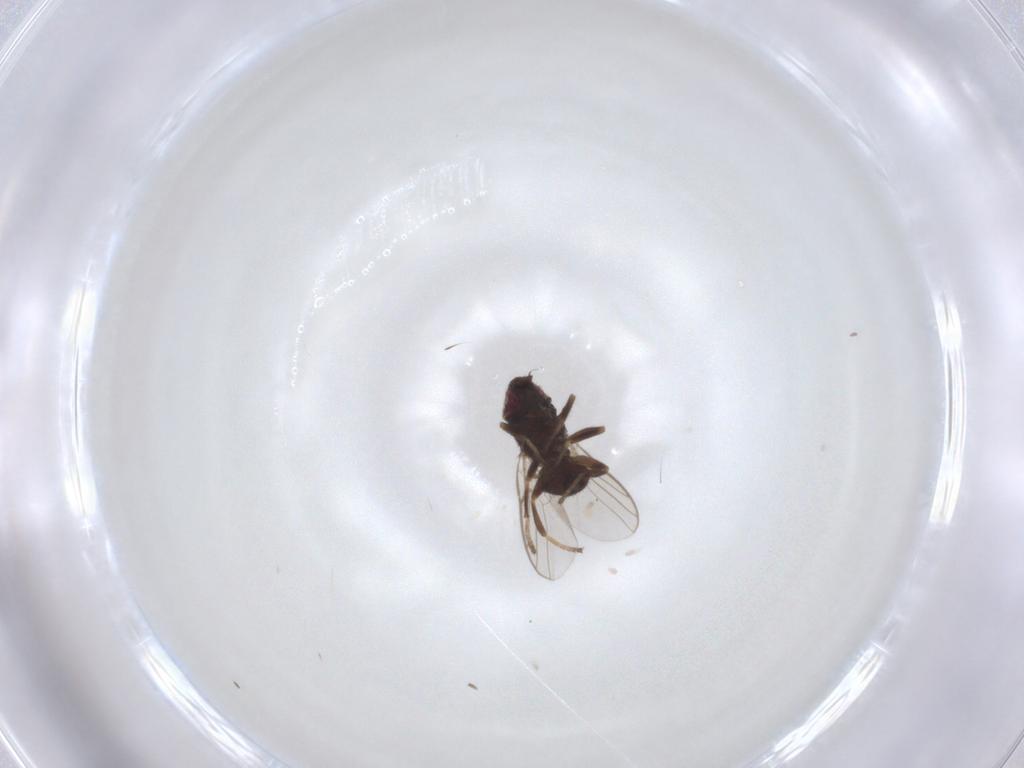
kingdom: Animalia
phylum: Arthropoda
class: Insecta
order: Diptera
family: Chloropidae
